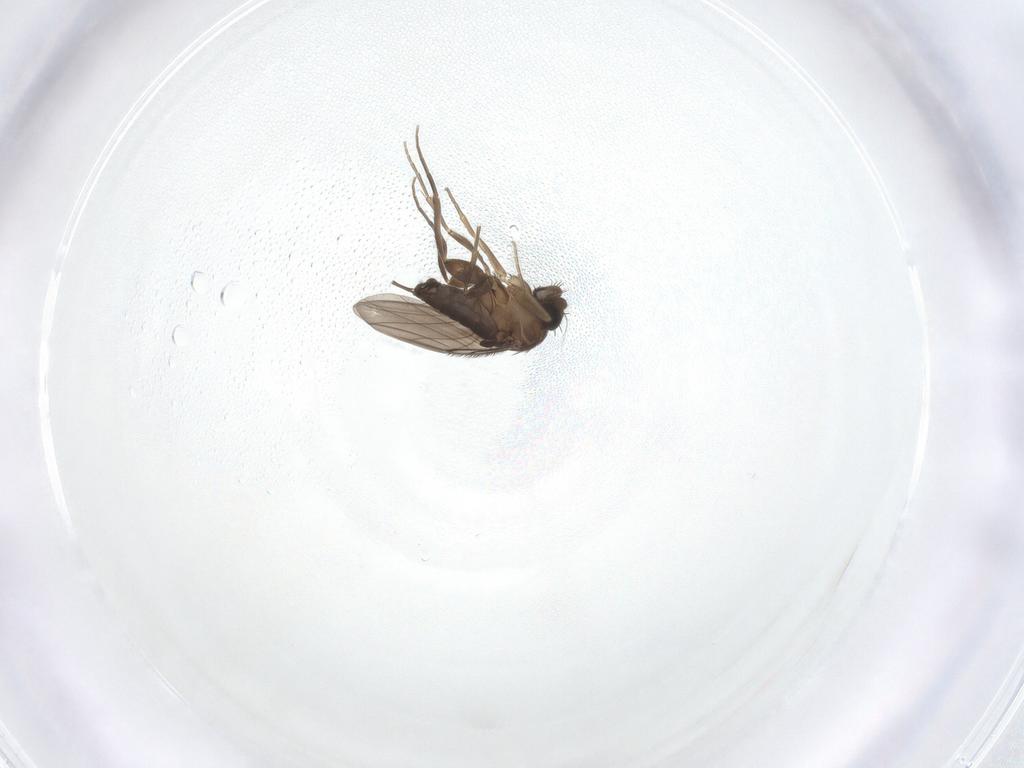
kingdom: Animalia
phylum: Arthropoda
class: Insecta
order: Diptera
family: Phoridae
